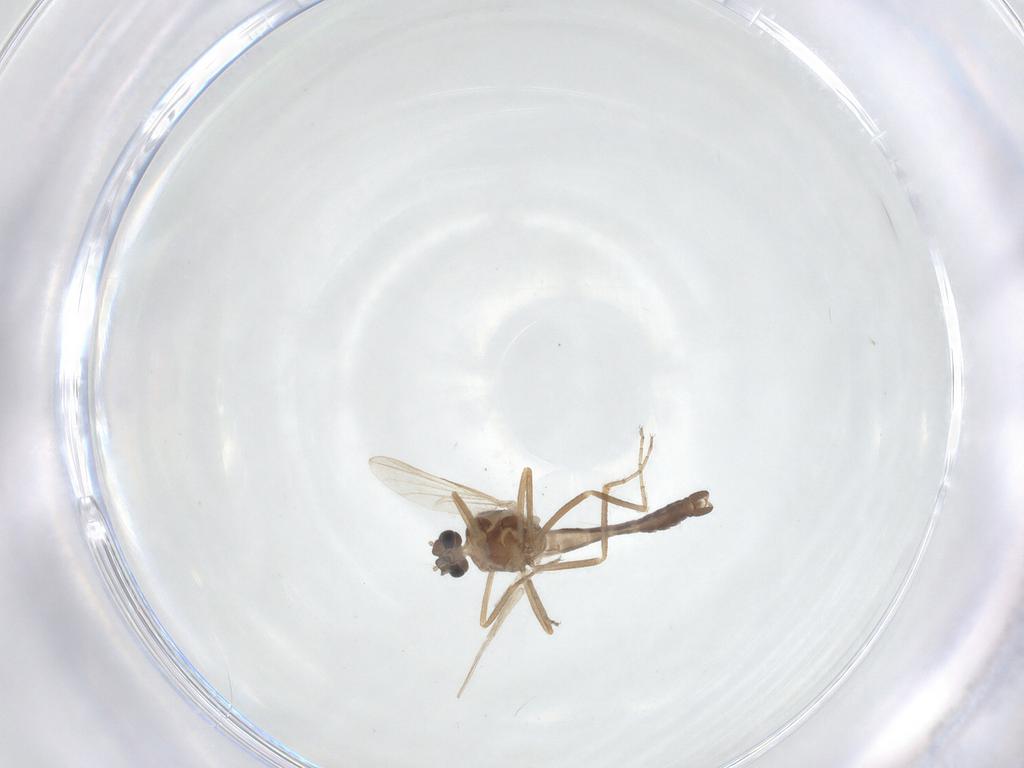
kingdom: Animalia
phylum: Arthropoda
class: Insecta
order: Diptera
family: Ceratopogonidae
